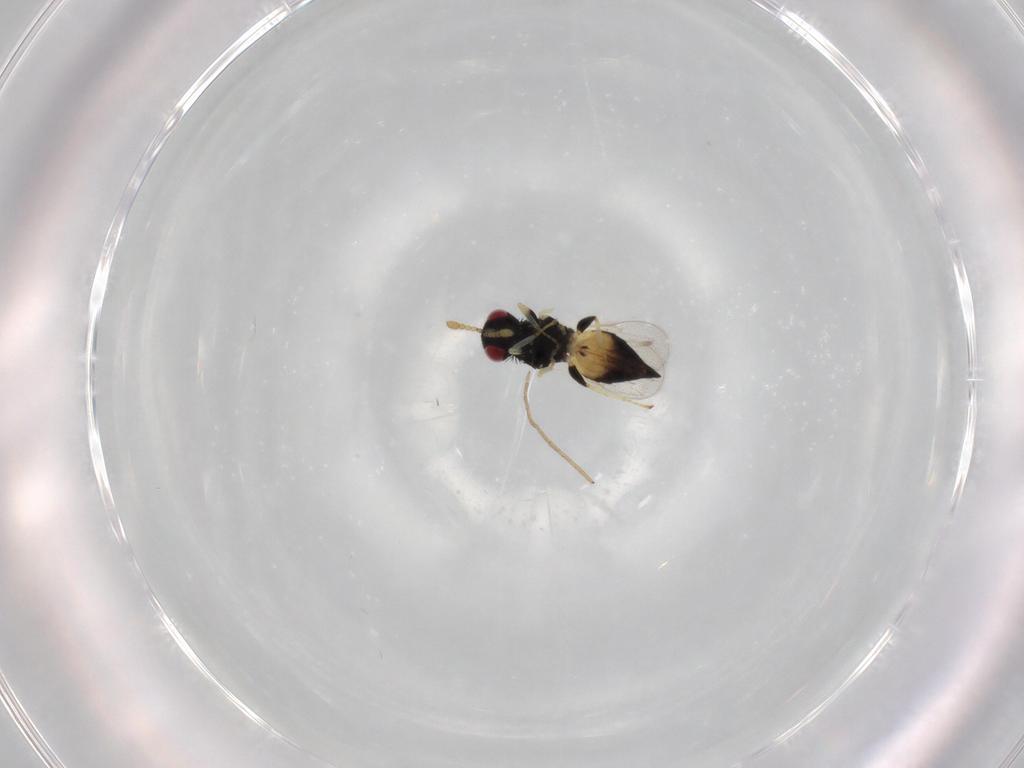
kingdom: Animalia
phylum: Arthropoda
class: Insecta
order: Hymenoptera
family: Eulophidae
